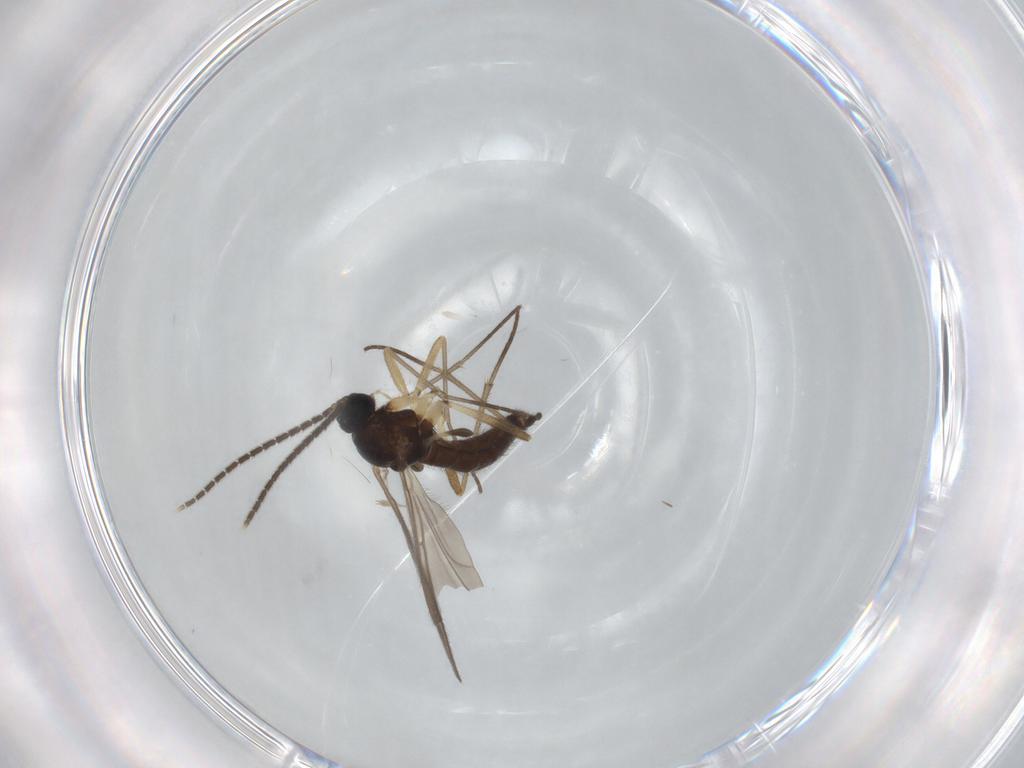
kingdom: Animalia
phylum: Arthropoda
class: Insecta
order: Diptera
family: Sciaridae
